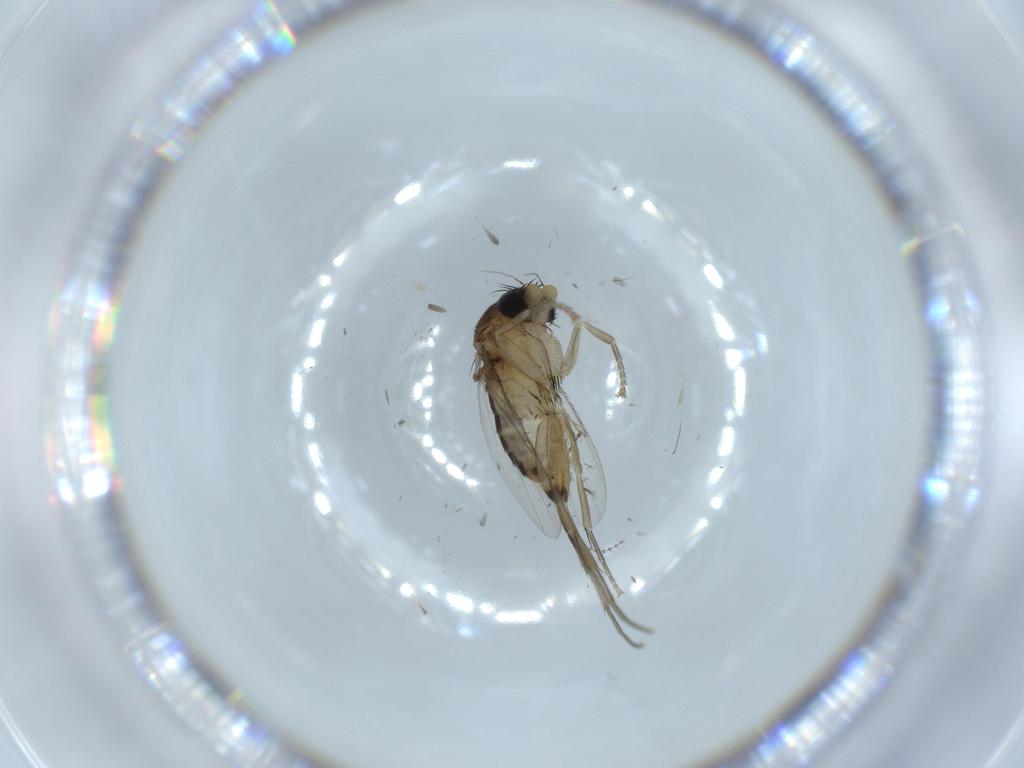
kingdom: Animalia
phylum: Arthropoda
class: Insecta
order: Diptera
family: Phoridae
